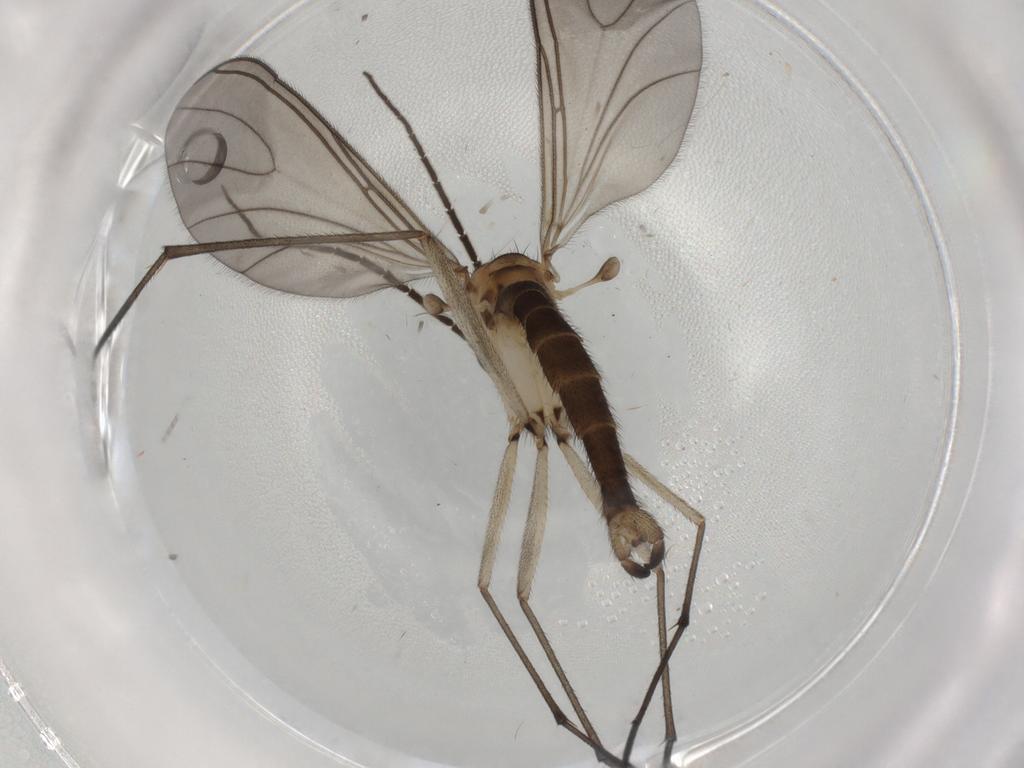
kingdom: Animalia
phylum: Arthropoda
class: Insecta
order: Diptera
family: Sciaridae
